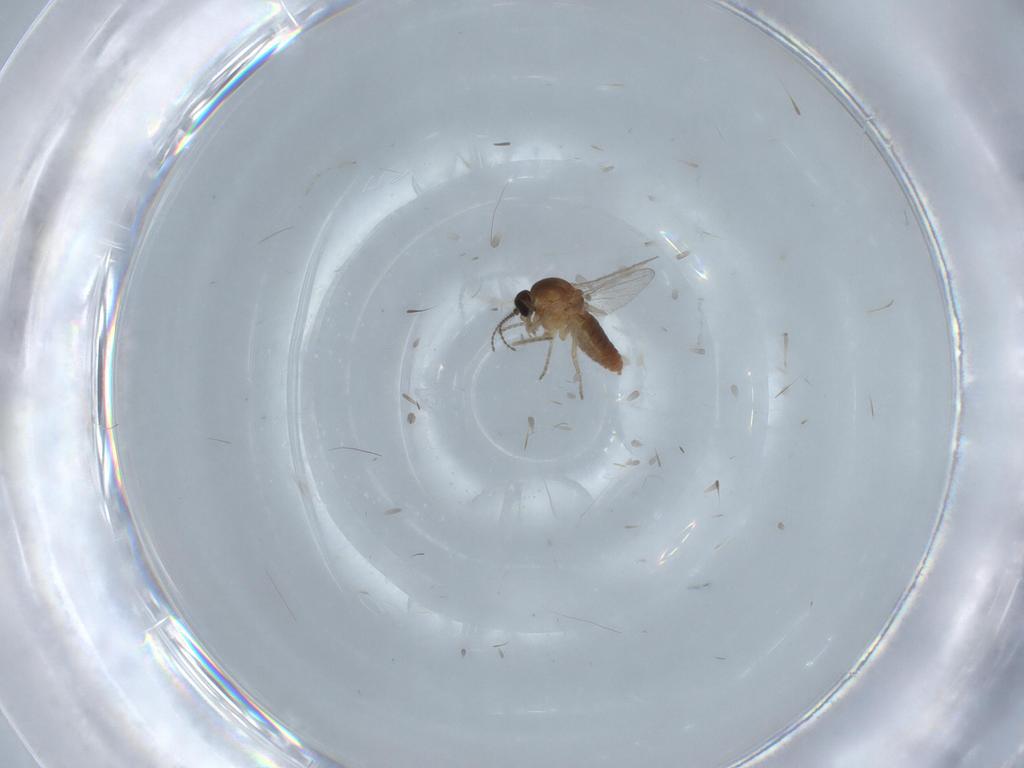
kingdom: Animalia
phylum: Arthropoda
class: Insecta
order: Diptera
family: Ceratopogonidae
